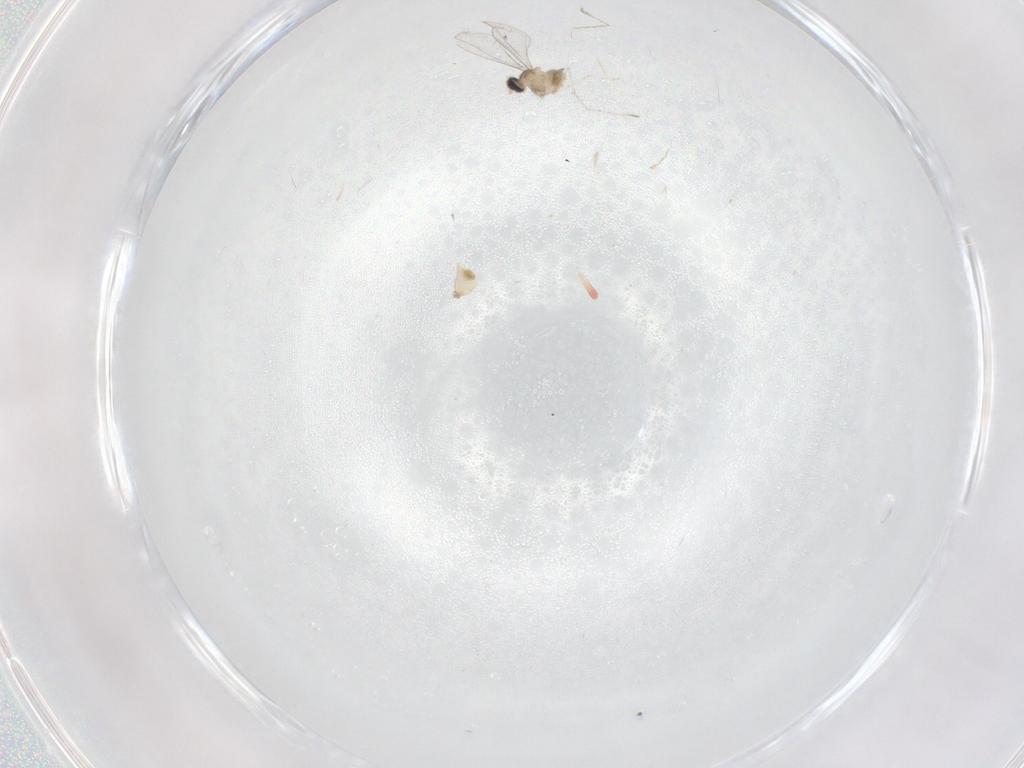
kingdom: Animalia
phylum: Arthropoda
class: Insecta
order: Diptera
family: Cecidomyiidae
